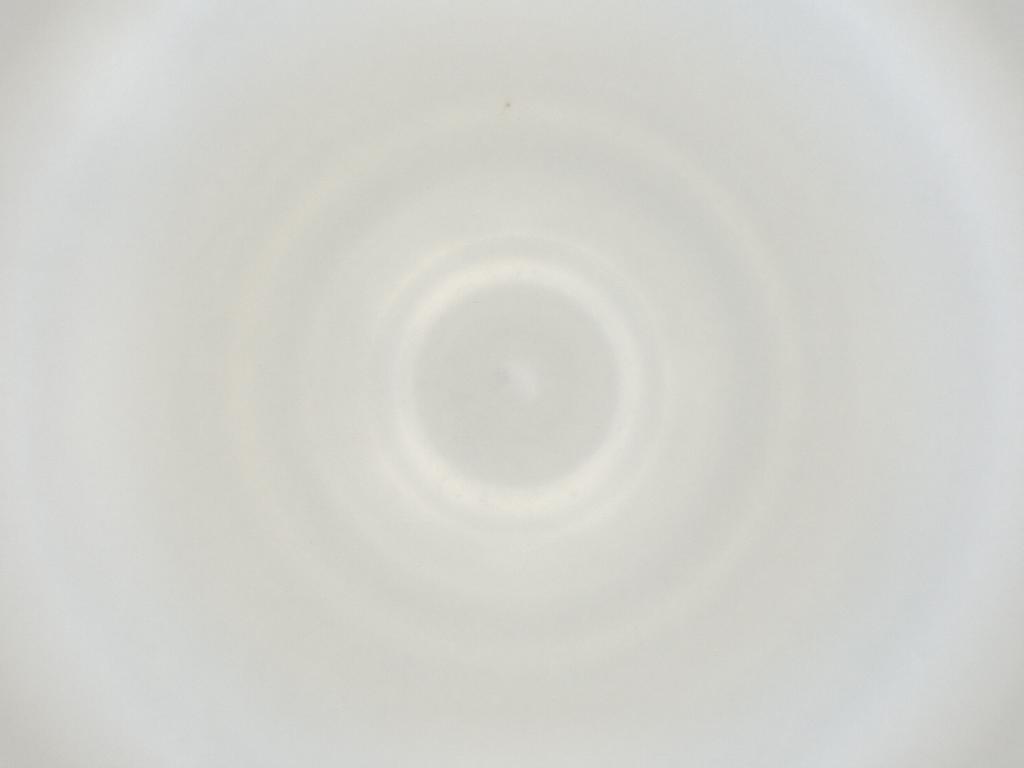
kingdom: Animalia
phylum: Arthropoda
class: Insecta
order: Diptera
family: Cecidomyiidae
